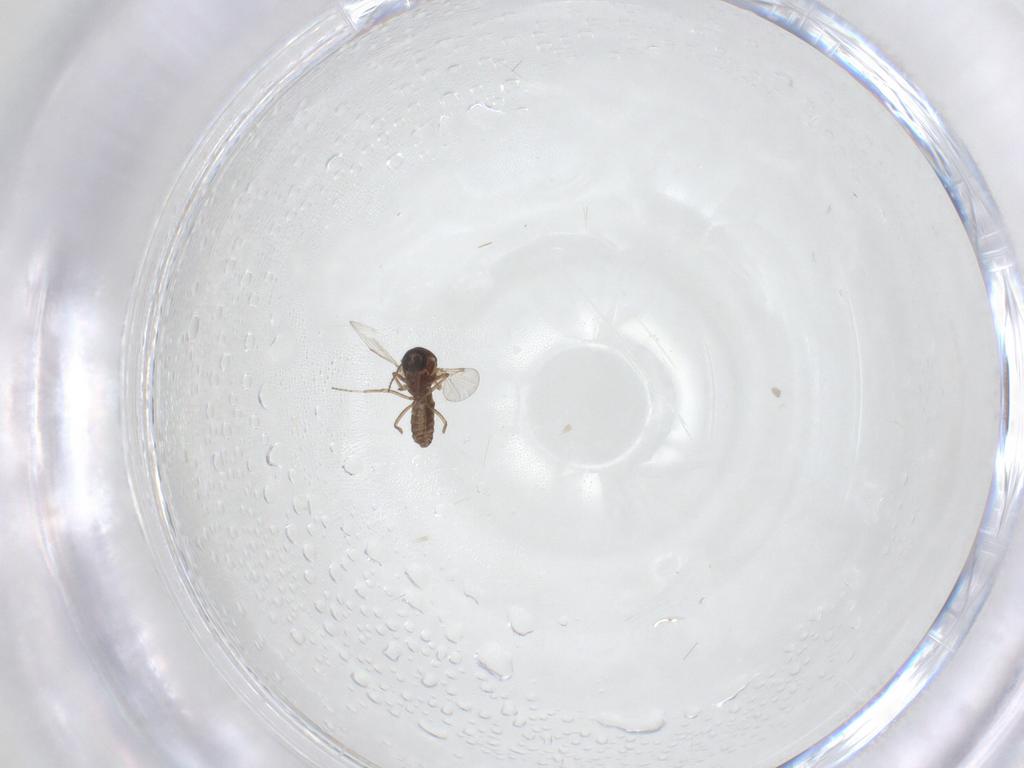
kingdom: Animalia
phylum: Arthropoda
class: Insecta
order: Diptera
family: Ceratopogonidae
